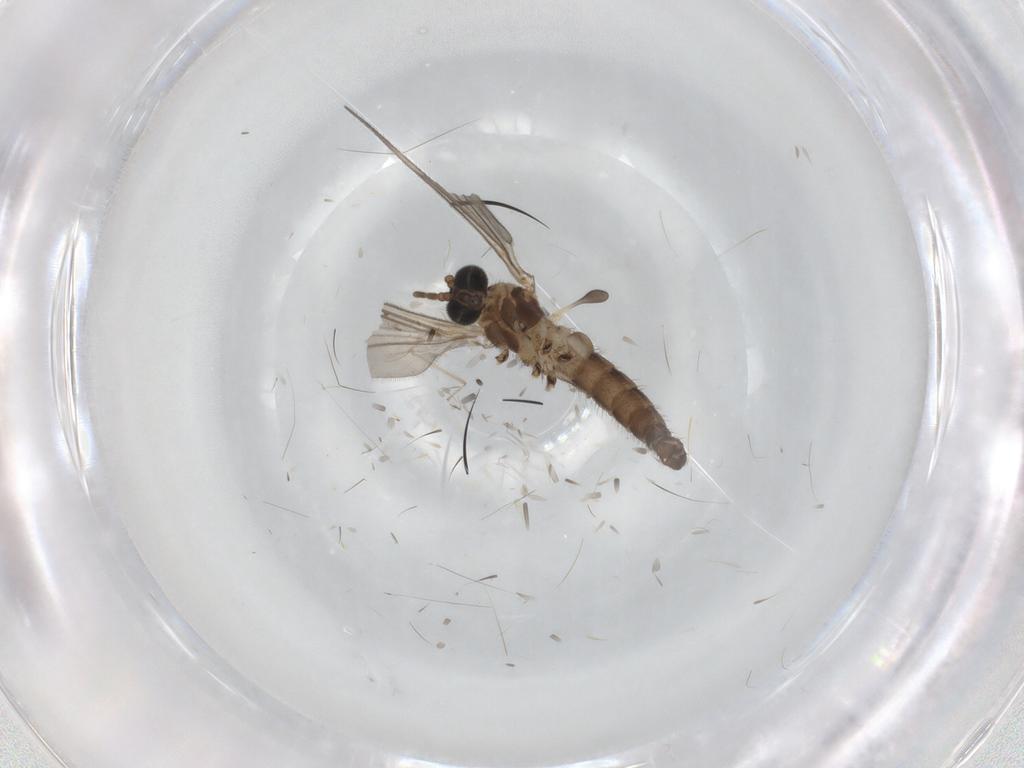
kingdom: Animalia
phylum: Arthropoda
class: Insecta
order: Diptera
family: Sciaridae
